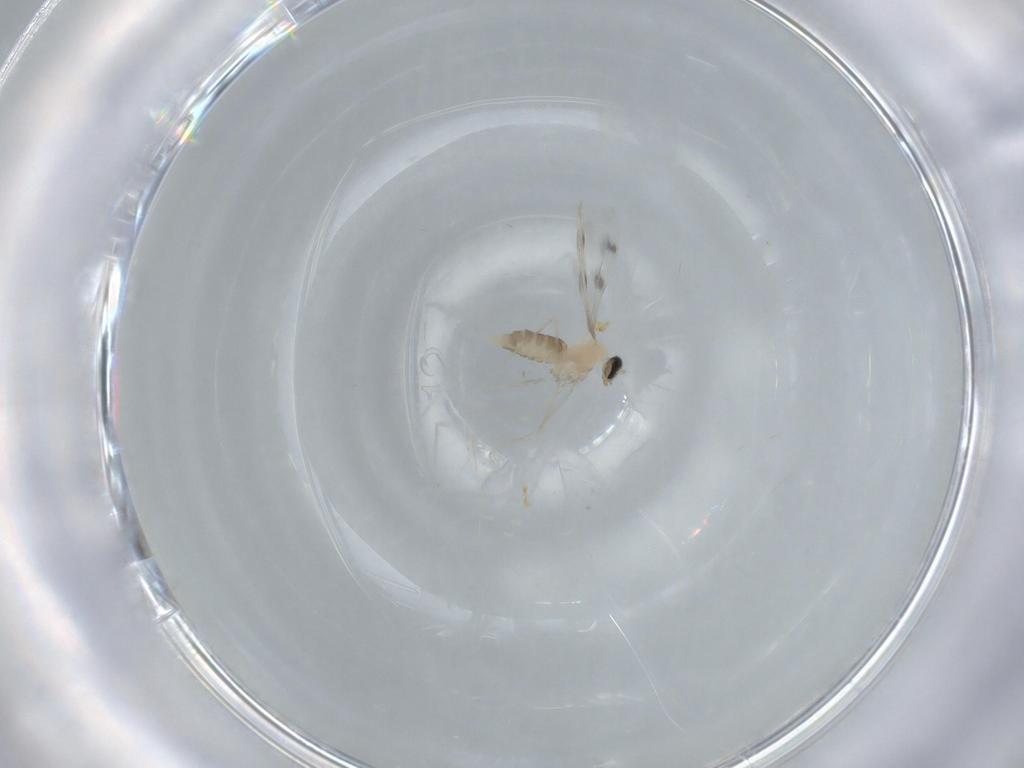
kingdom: Animalia
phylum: Arthropoda
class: Insecta
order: Diptera
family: Cecidomyiidae
